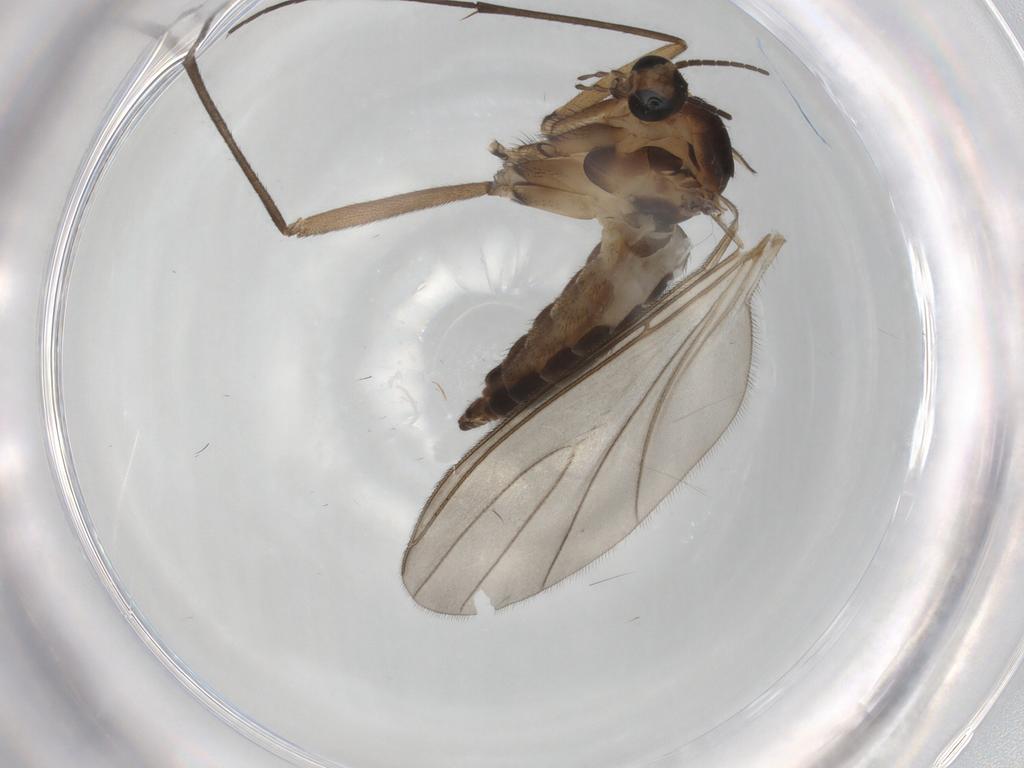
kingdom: Animalia
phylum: Arthropoda
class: Insecta
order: Diptera
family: Sciaridae
